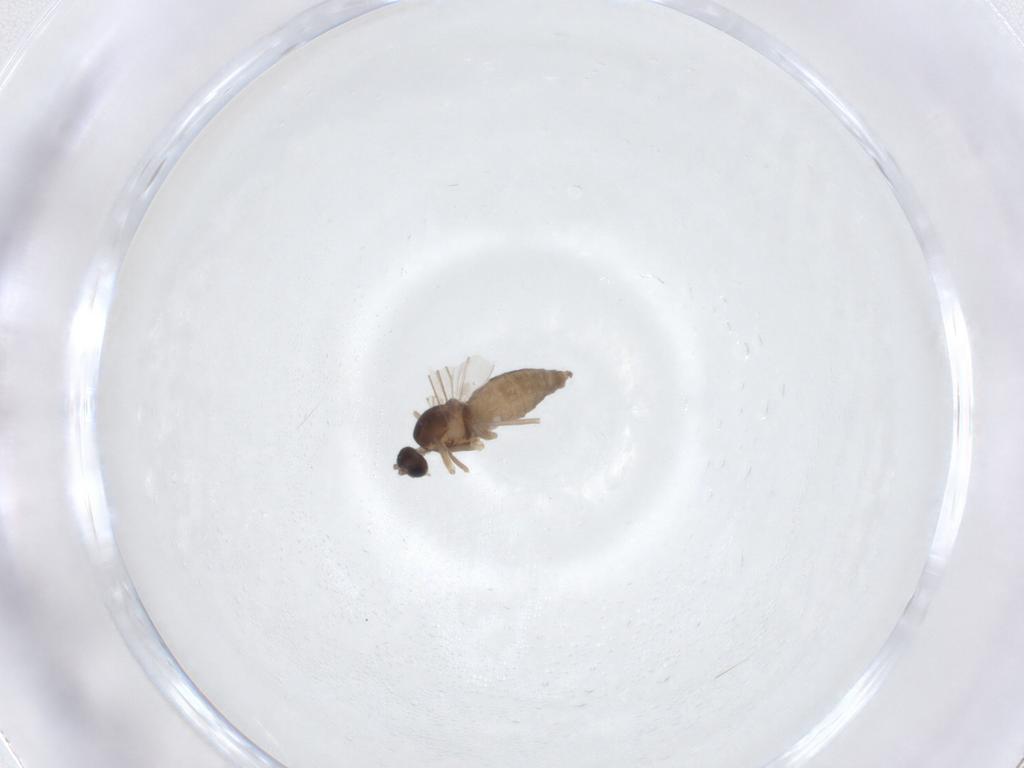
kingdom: Animalia
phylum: Arthropoda
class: Insecta
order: Diptera
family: Cecidomyiidae
